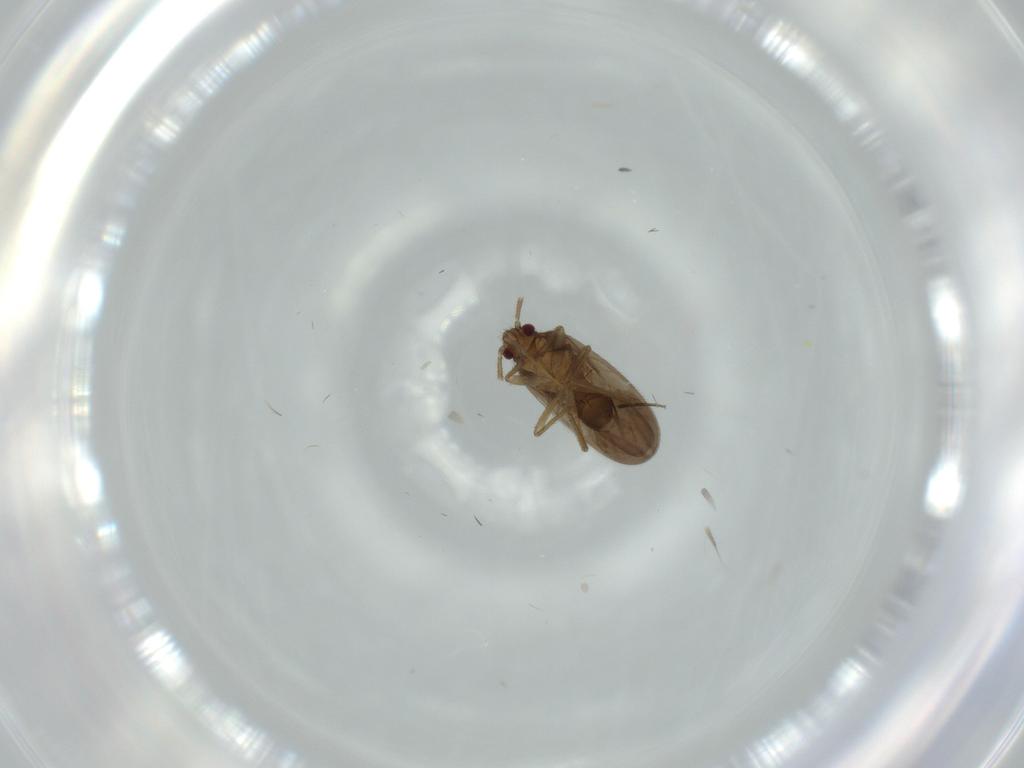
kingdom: Animalia
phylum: Arthropoda
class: Insecta
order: Hemiptera
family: Ceratocombidae
